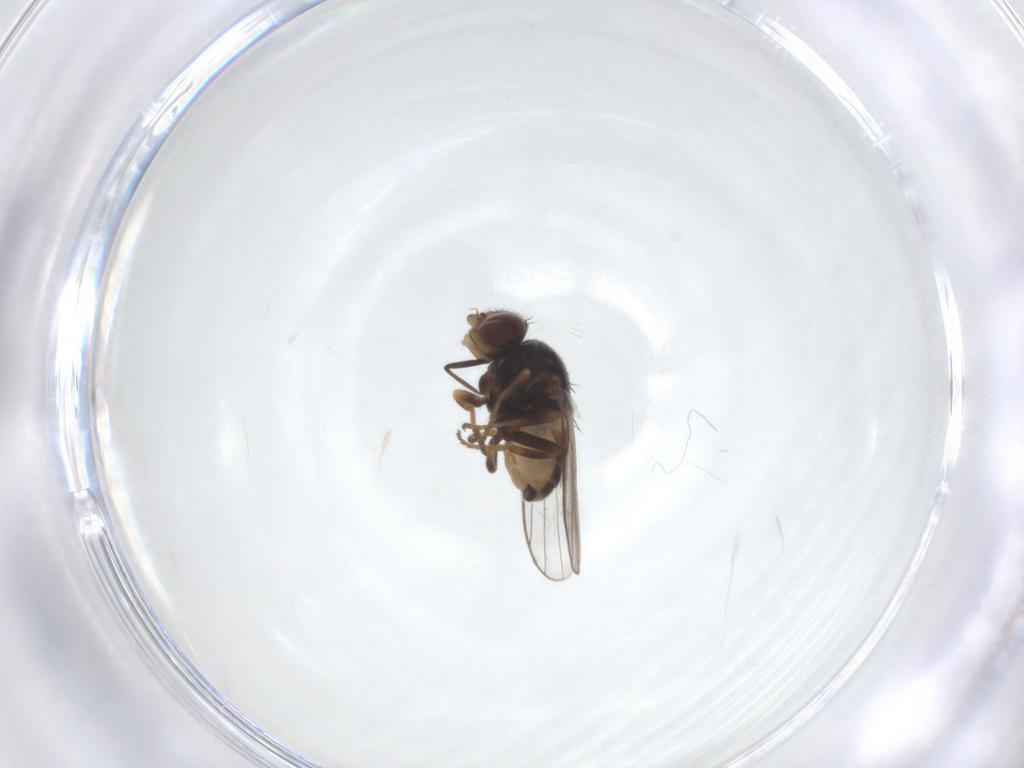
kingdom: Animalia
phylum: Arthropoda
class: Insecta
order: Diptera
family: Chloropidae
